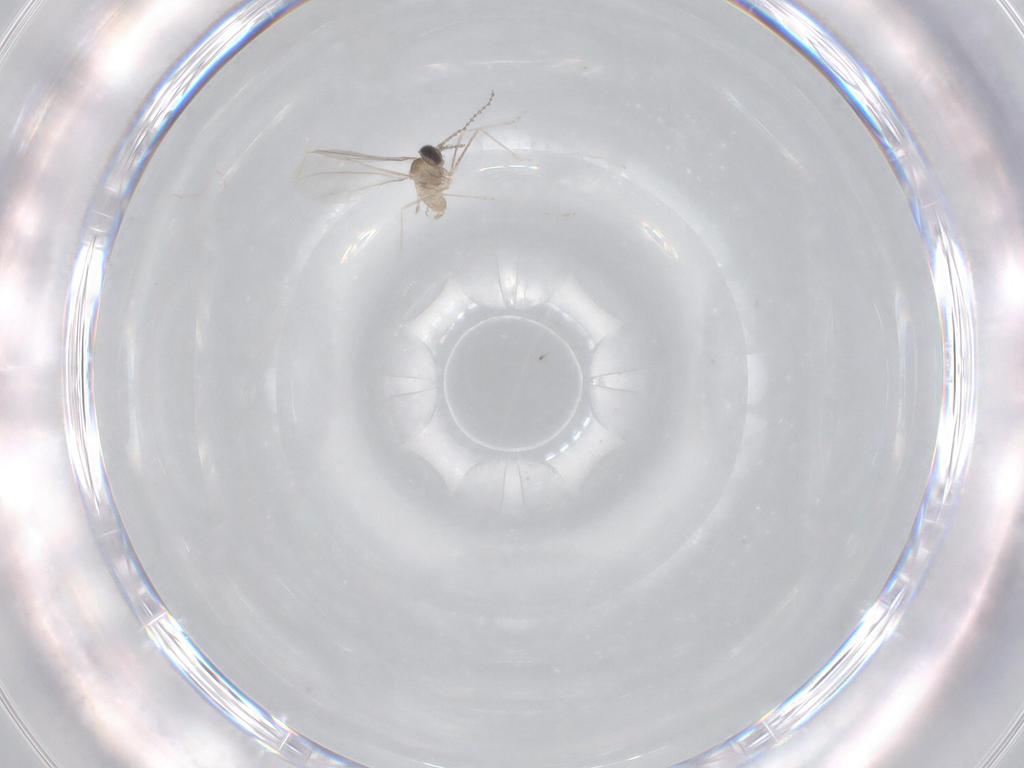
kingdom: Animalia
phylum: Arthropoda
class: Insecta
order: Diptera
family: Cecidomyiidae
